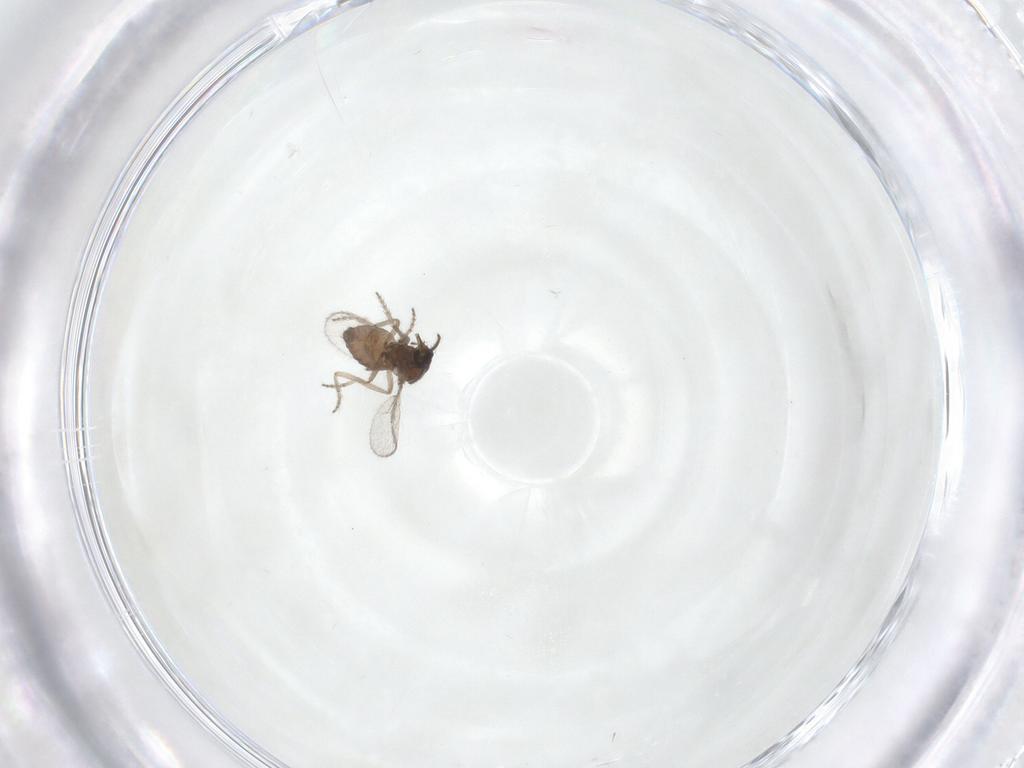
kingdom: Animalia
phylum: Arthropoda
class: Insecta
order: Diptera
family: Ceratopogonidae
